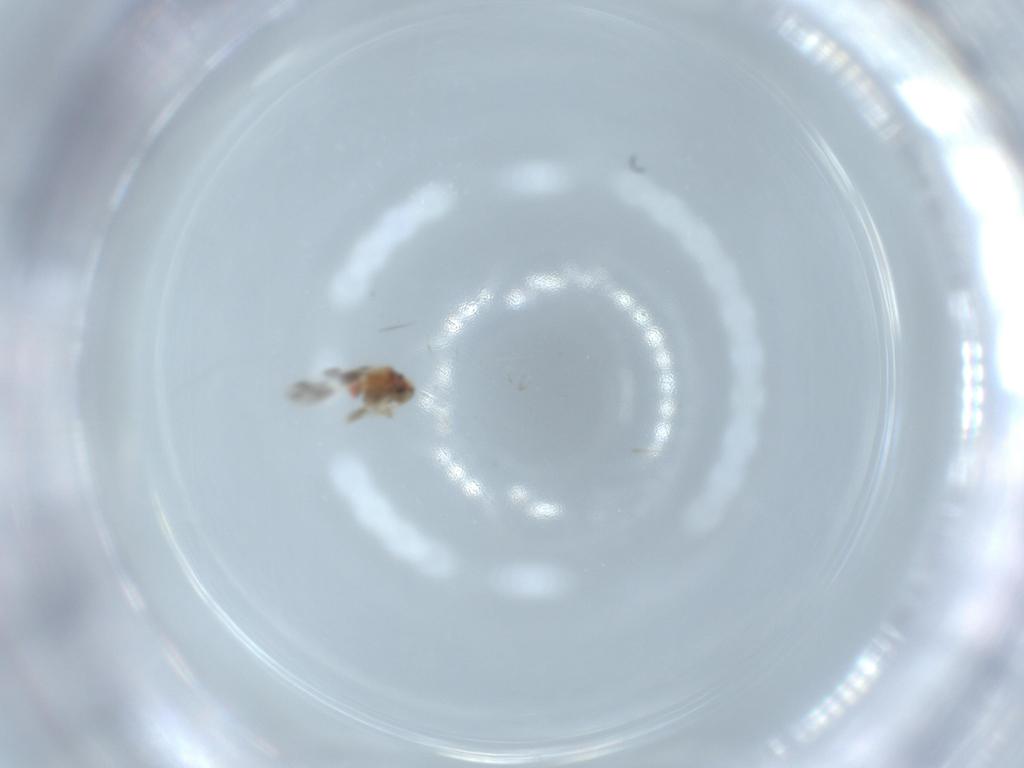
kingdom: Animalia
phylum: Arthropoda
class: Insecta
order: Hemiptera
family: Aleyrodidae
